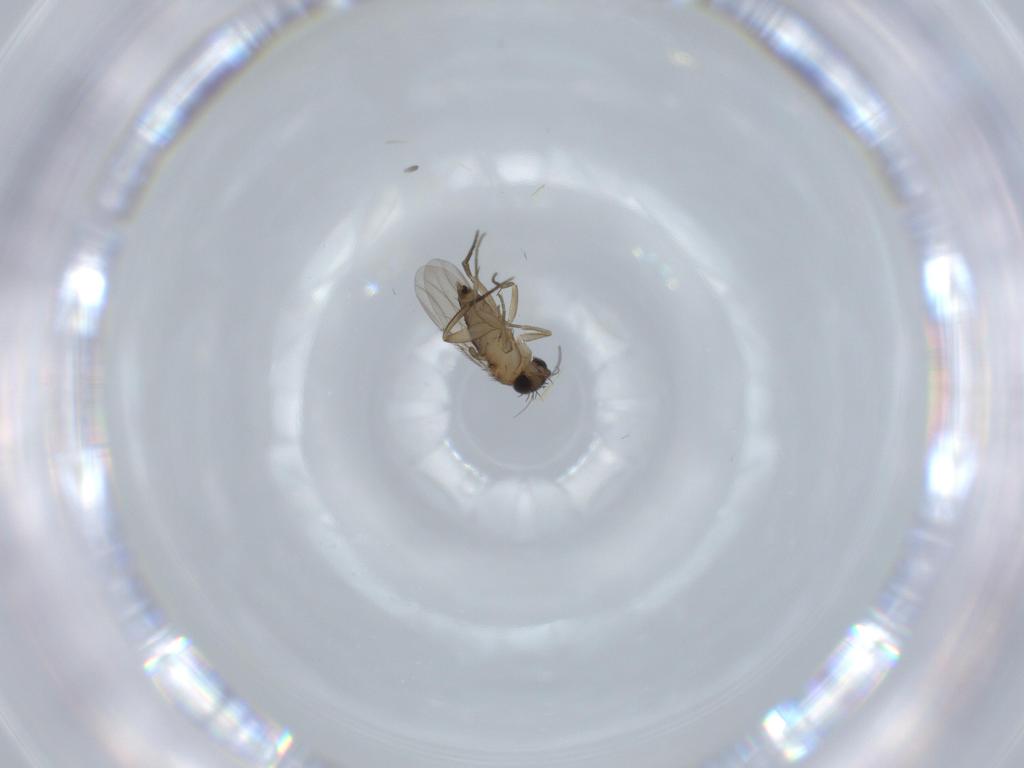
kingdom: Animalia
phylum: Arthropoda
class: Insecta
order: Diptera
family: Phoridae
